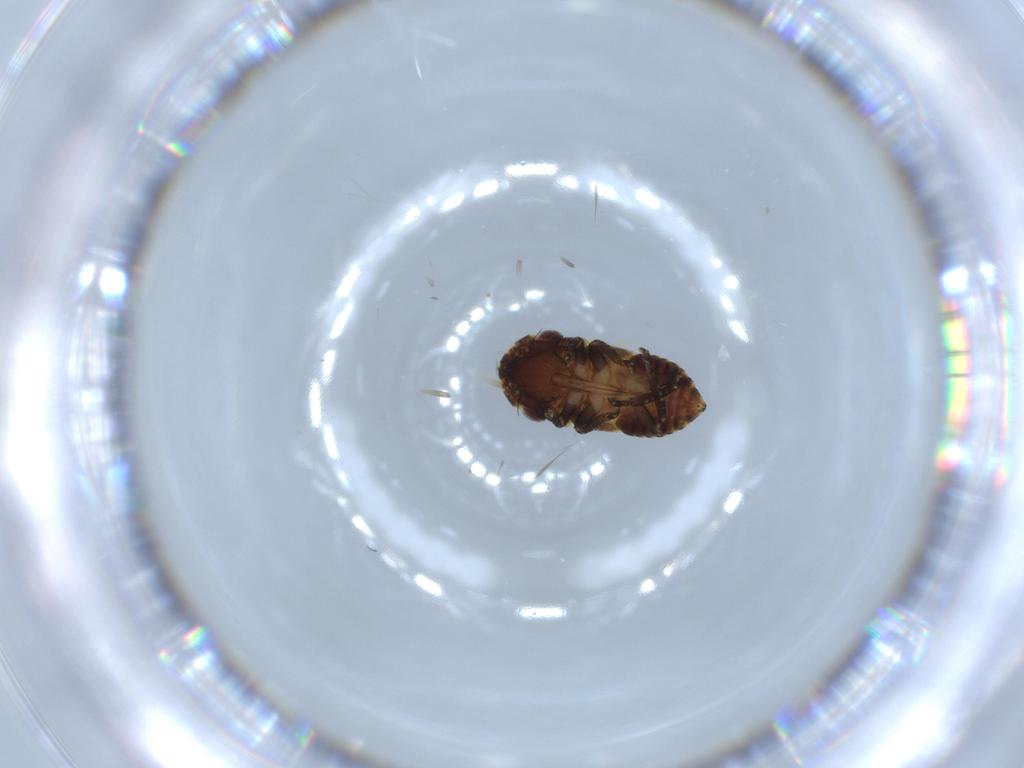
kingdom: Animalia
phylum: Arthropoda
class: Insecta
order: Hemiptera
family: Cicadellidae
